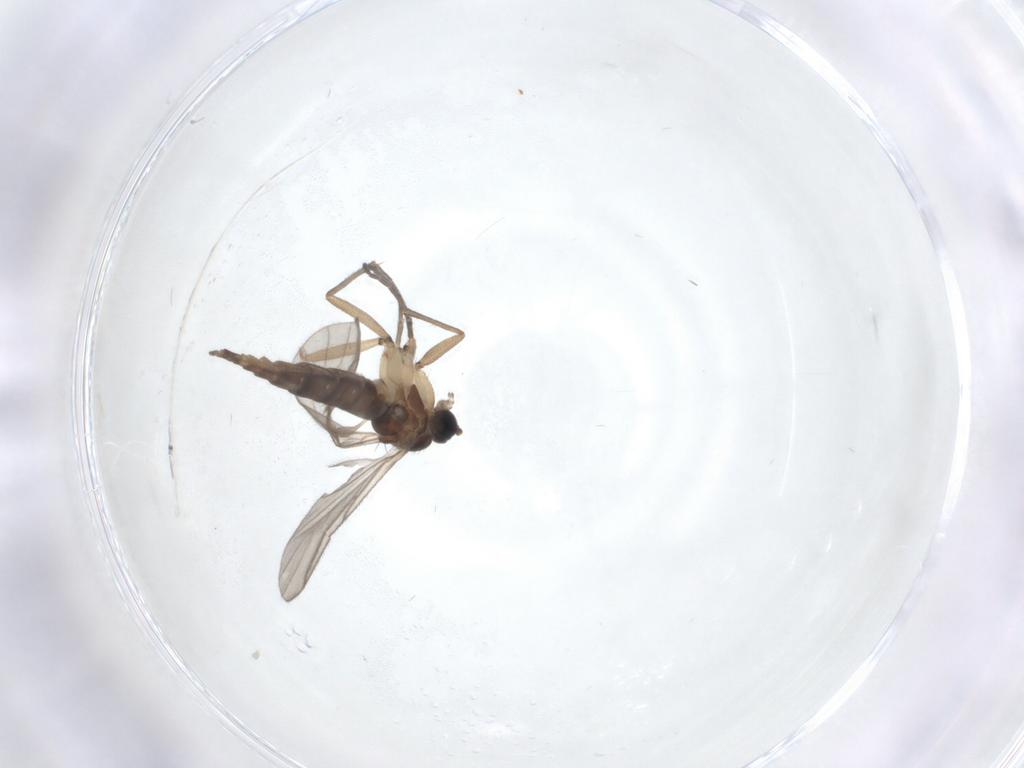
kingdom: Animalia
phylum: Arthropoda
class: Insecta
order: Diptera
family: Sciaridae
